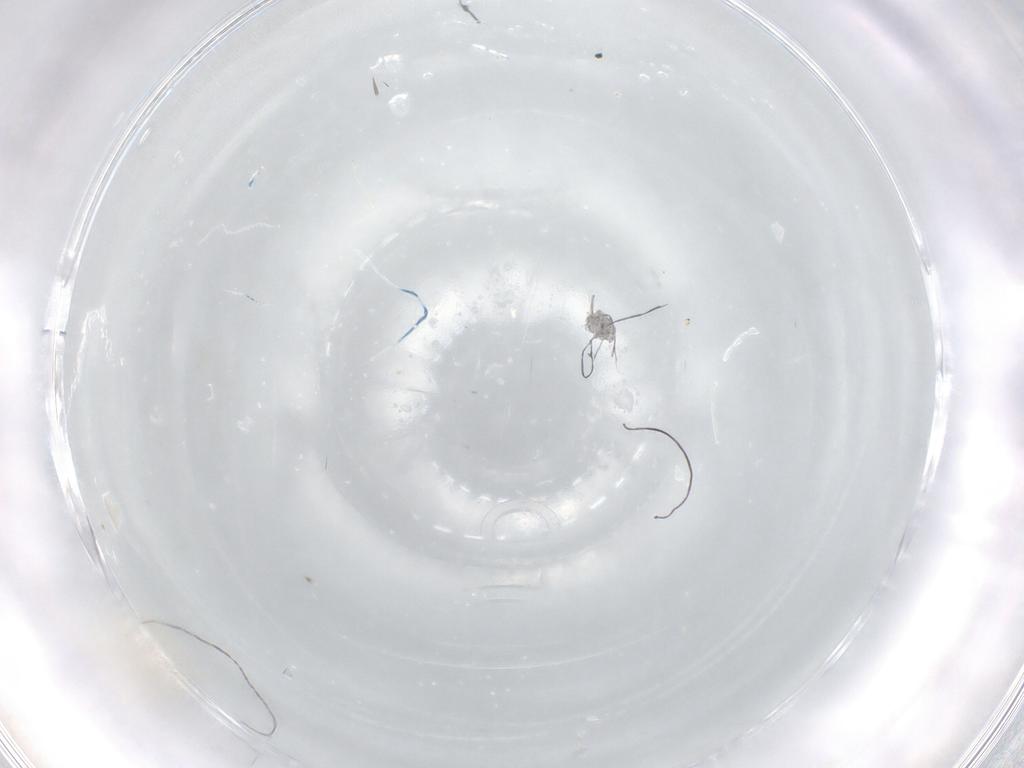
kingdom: Animalia
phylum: Arthropoda
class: Insecta
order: Diptera
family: Cecidomyiidae
